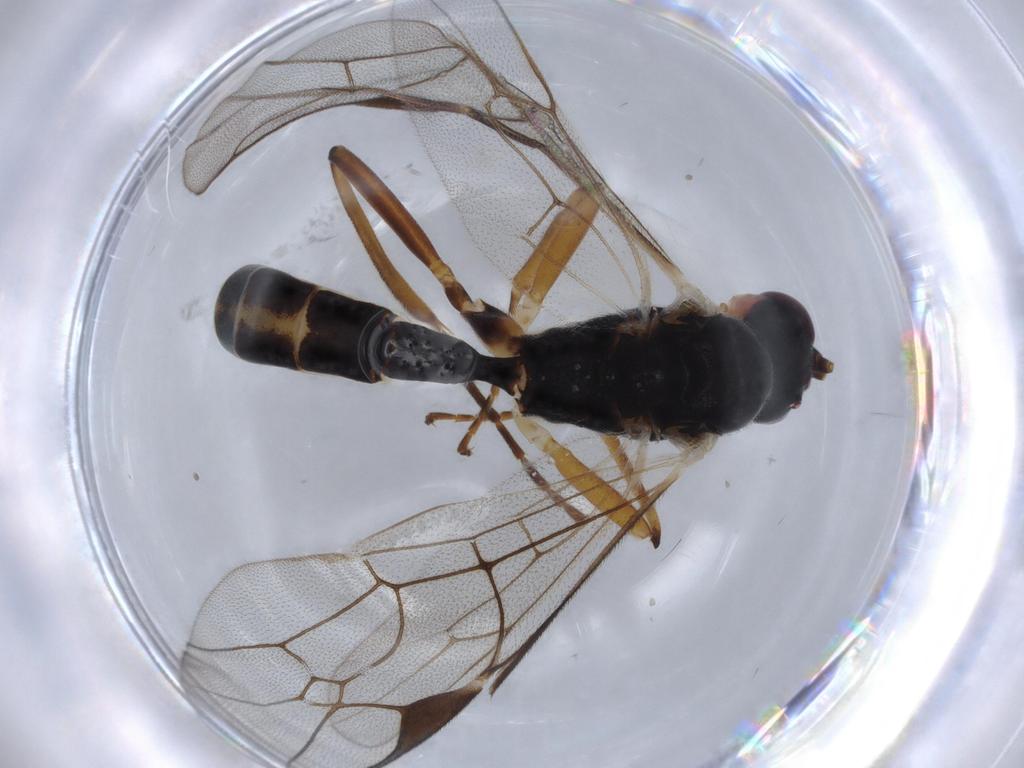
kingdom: Animalia
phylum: Arthropoda
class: Insecta
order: Hymenoptera
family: Ichneumonidae
